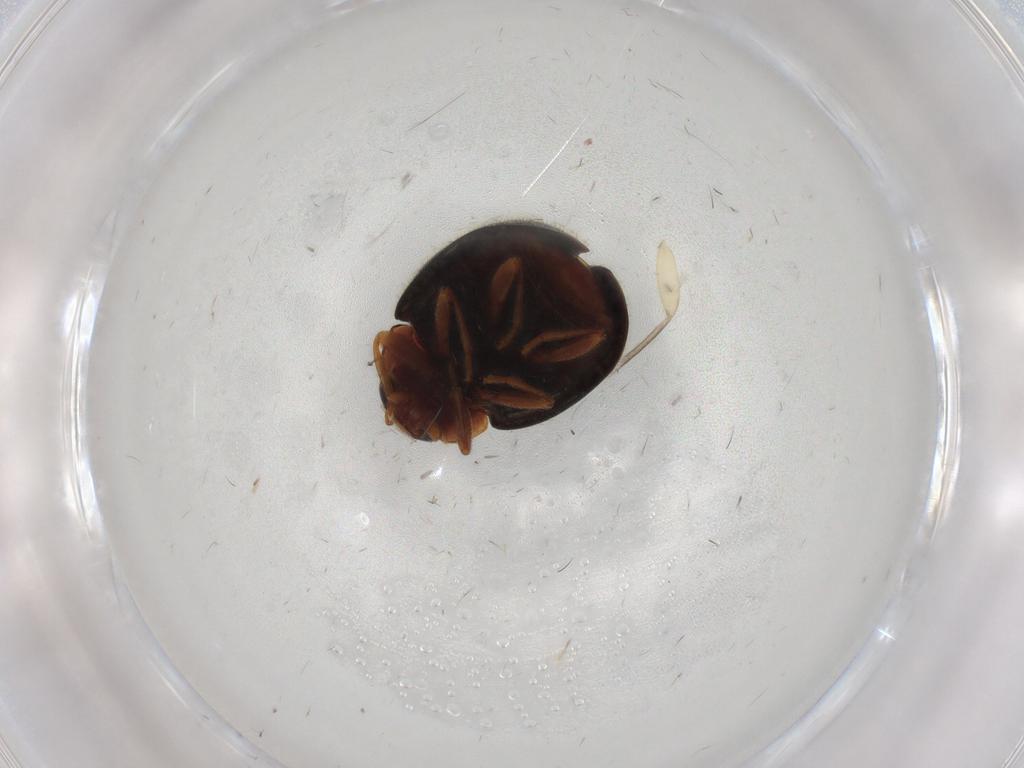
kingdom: Animalia
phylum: Arthropoda
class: Insecta
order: Coleoptera
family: Coccinellidae
